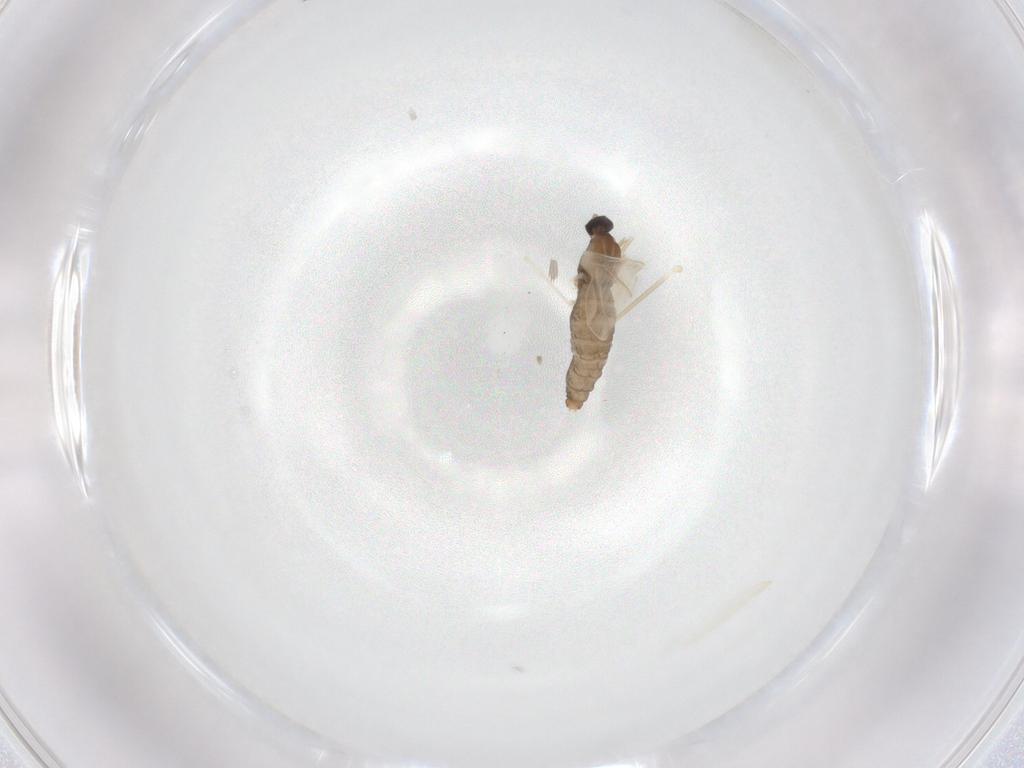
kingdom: Animalia
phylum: Arthropoda
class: Insecta
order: Diptera
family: Cecidomyiidae
